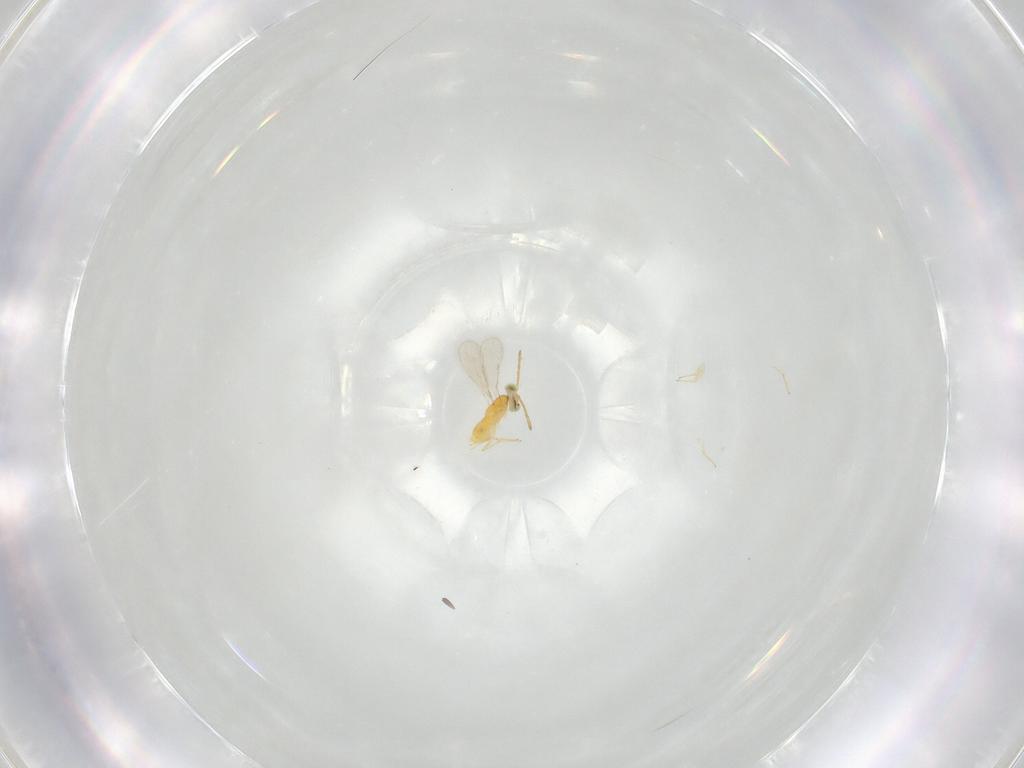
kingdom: Animalia
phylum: Arthropoda
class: Insecta
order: Hymenoptera
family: Aphelinidae
